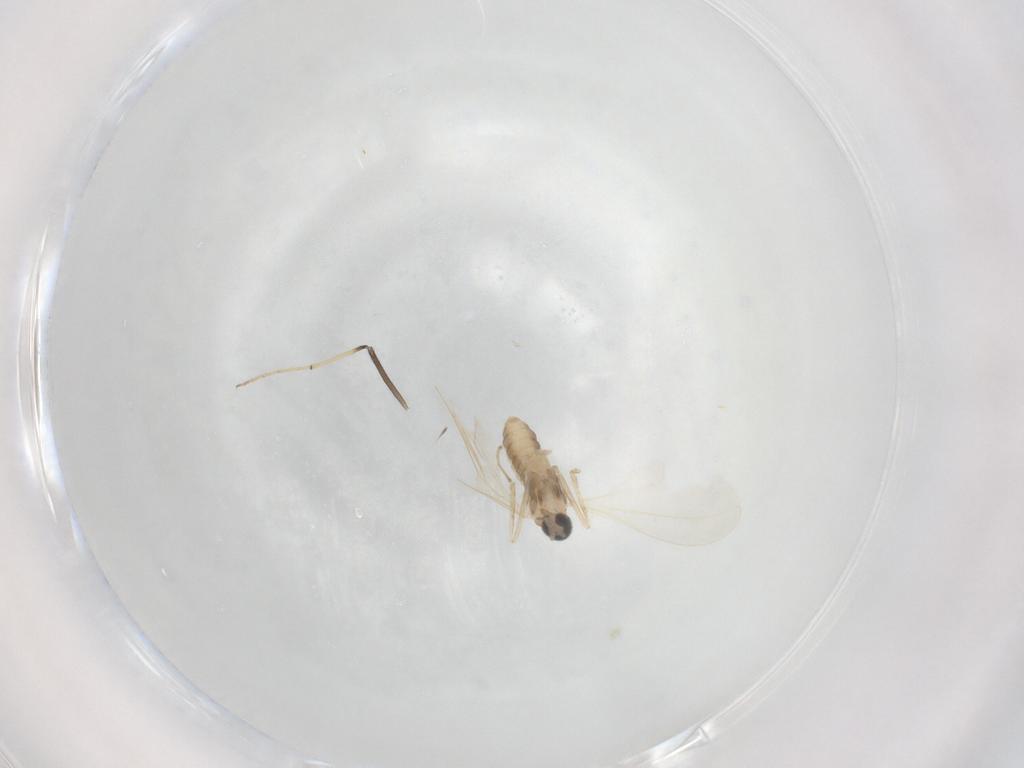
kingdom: Animalia
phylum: Arthropoda
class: Insecta
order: Diptera
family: Cecidomyiidae
